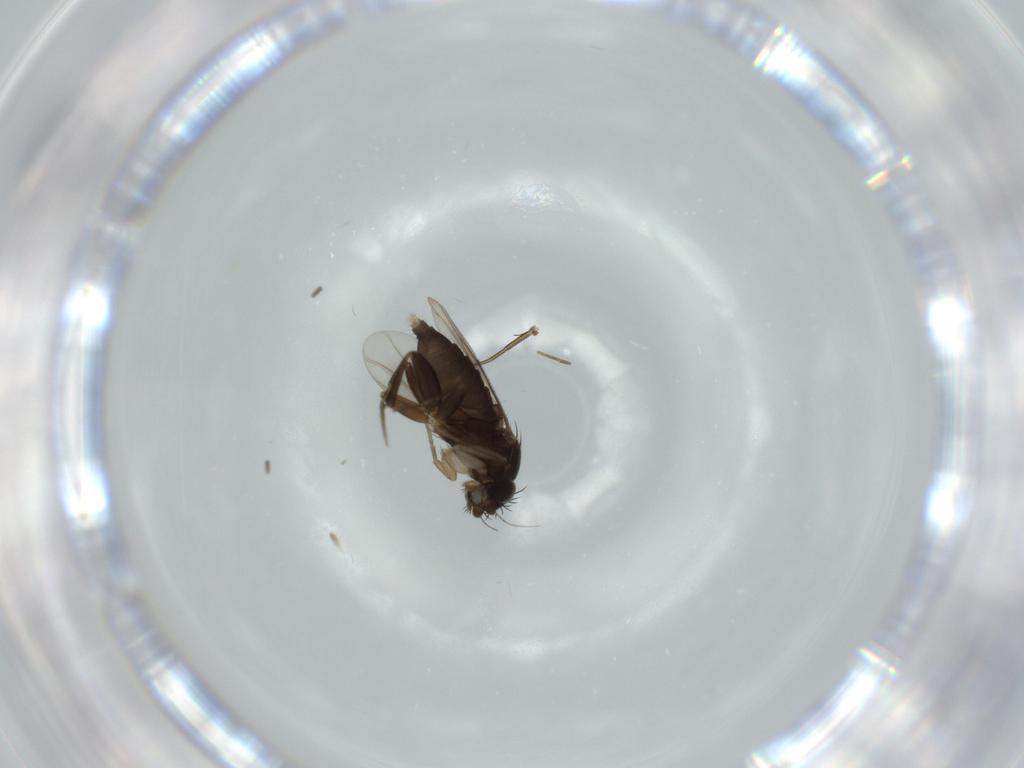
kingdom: Animalia
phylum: Arthropoda
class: Insecta
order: Diptera
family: Phoridae
